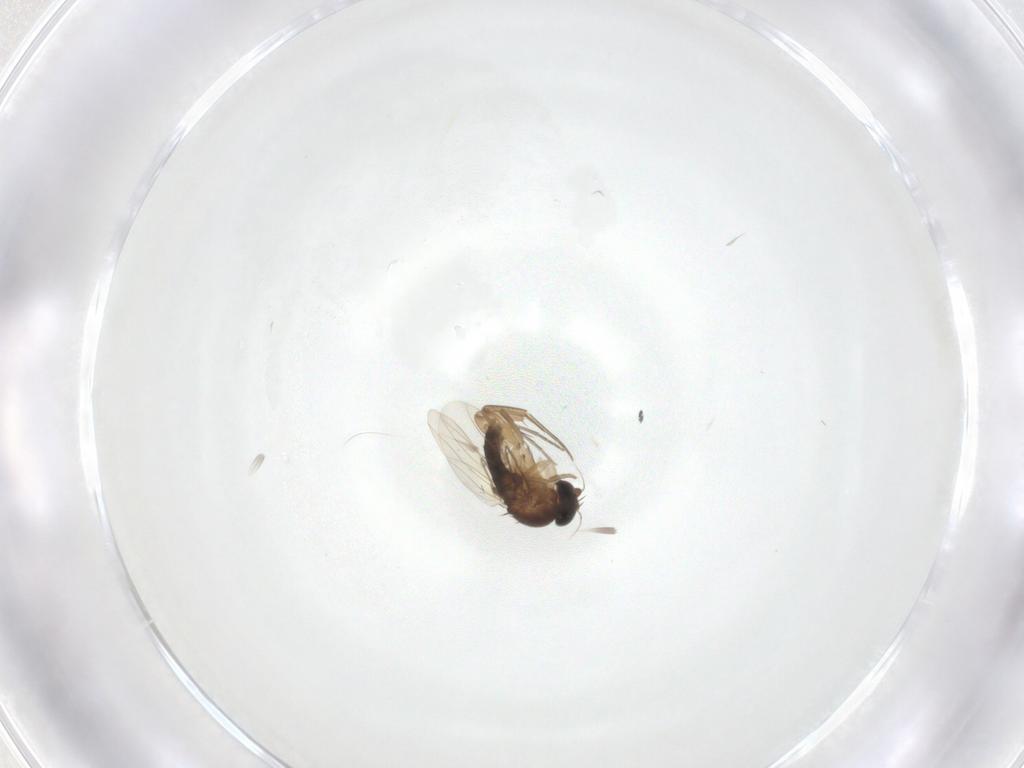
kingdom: Animalia
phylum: Arthropoda
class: Insecta
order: Diptera
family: Phoridae
